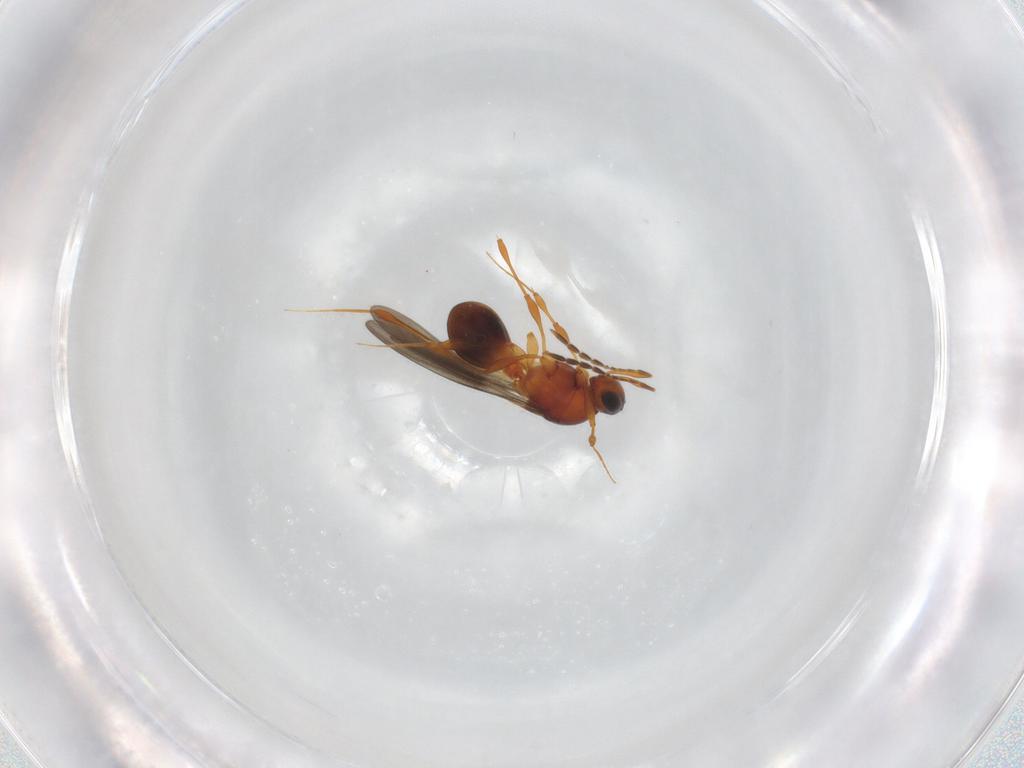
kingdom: Animalia
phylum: Arthropoda
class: Insecta
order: Hymenoptera
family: Platygastridae
